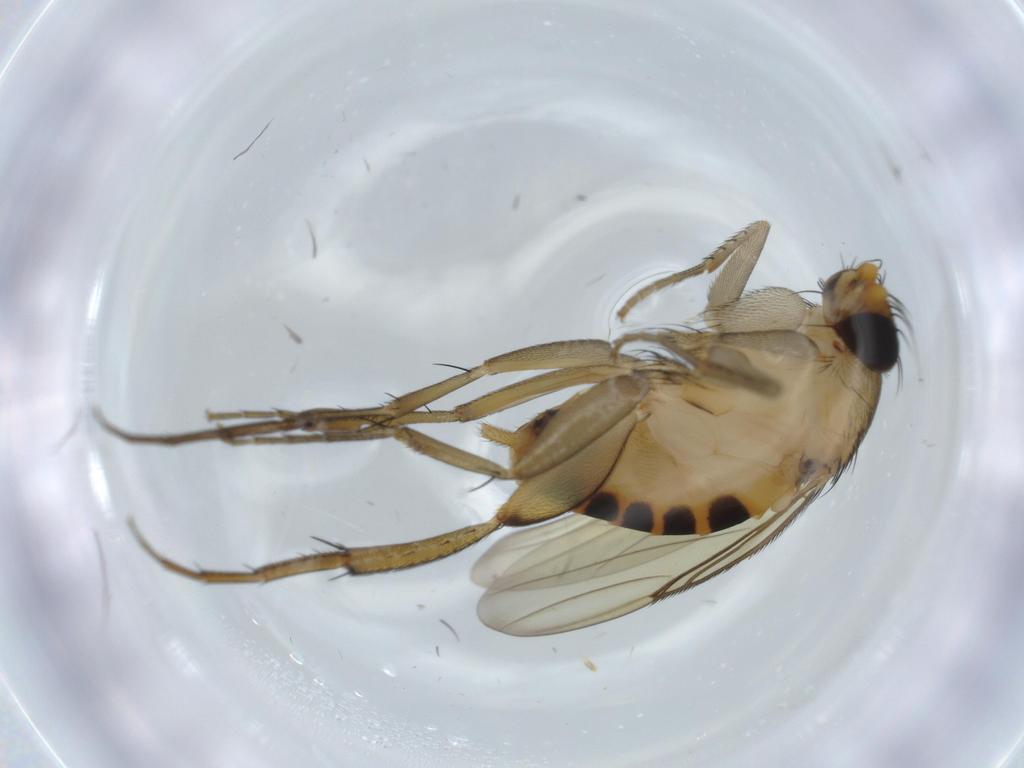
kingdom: Animalia
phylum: Arthropoda
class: Insecta
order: Diptera
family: Phoridae
